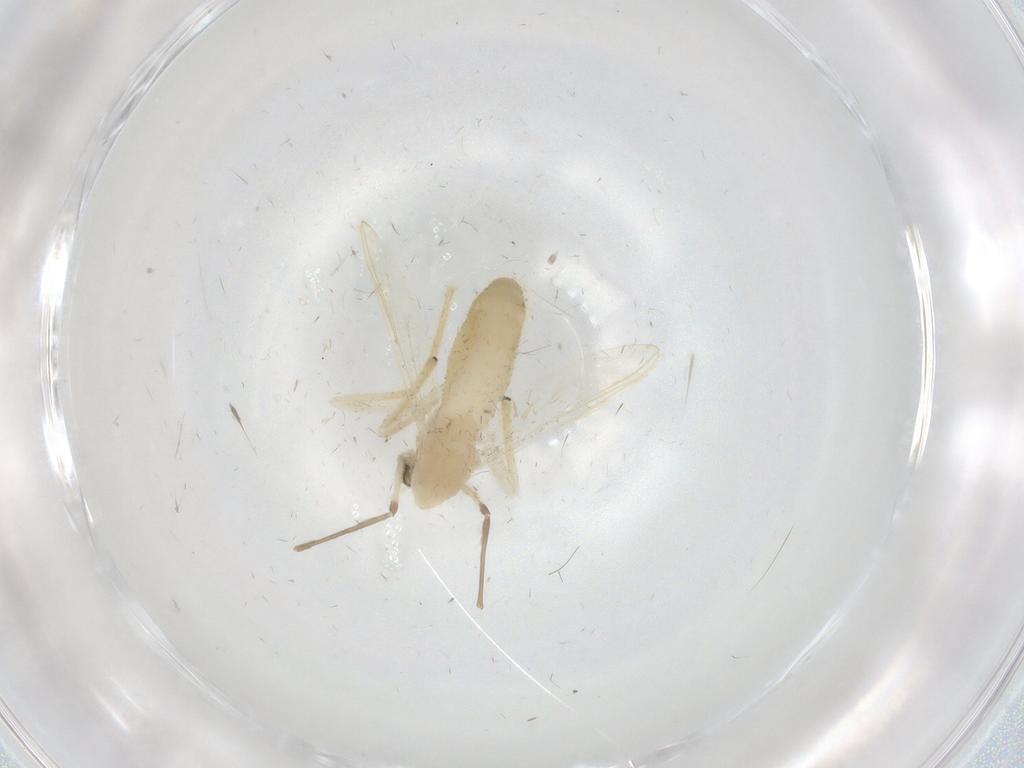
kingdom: Animalia
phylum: Arthropoda
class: Insecta
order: Diptera
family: Chironomidae
